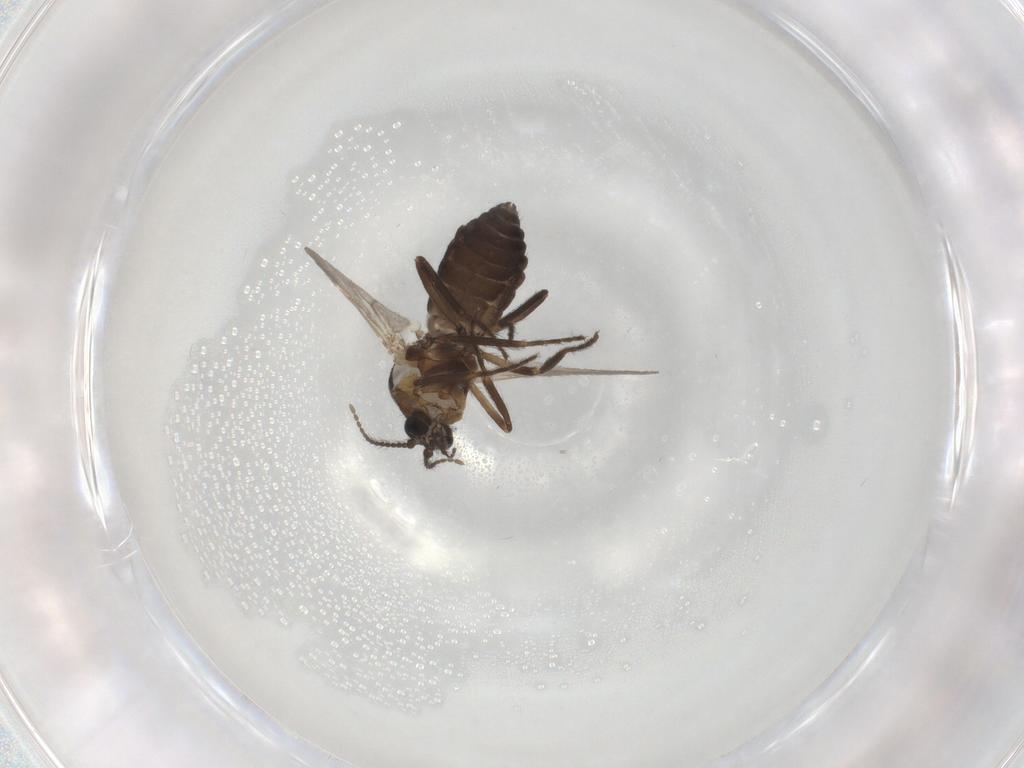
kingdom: Animalia
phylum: Arthropoda
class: Insecta
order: Diptera
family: Ceratopogonidae
